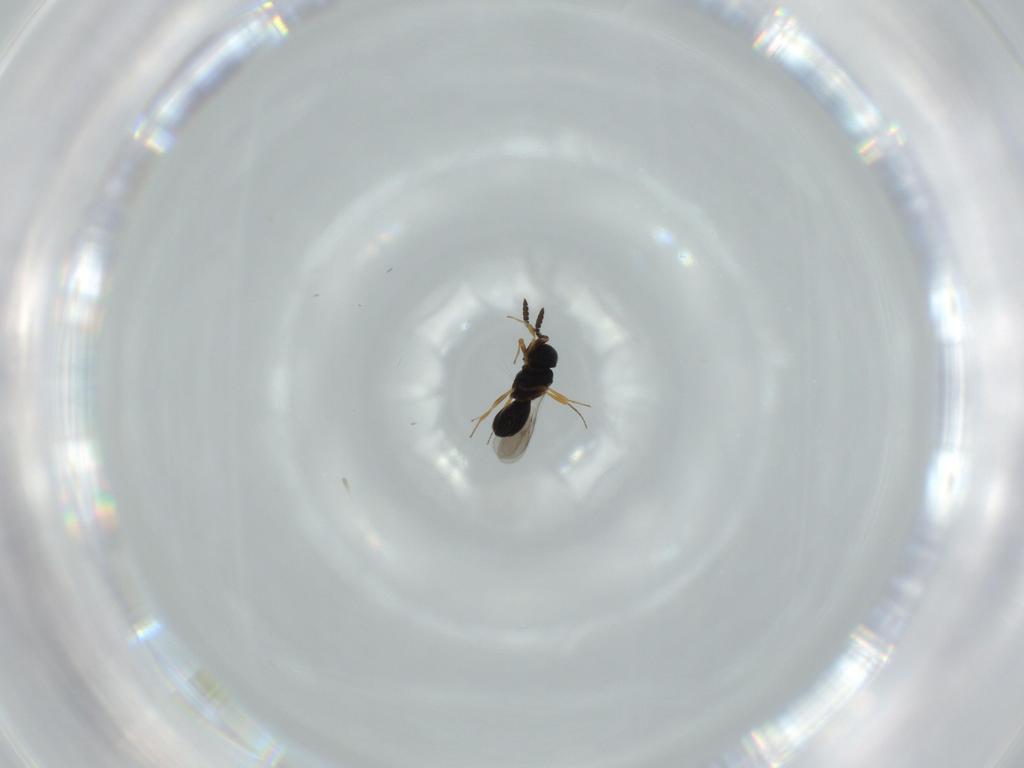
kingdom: Animalia
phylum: Arthropoda
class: Insecta
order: Hymenoptera
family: Scelionidae
